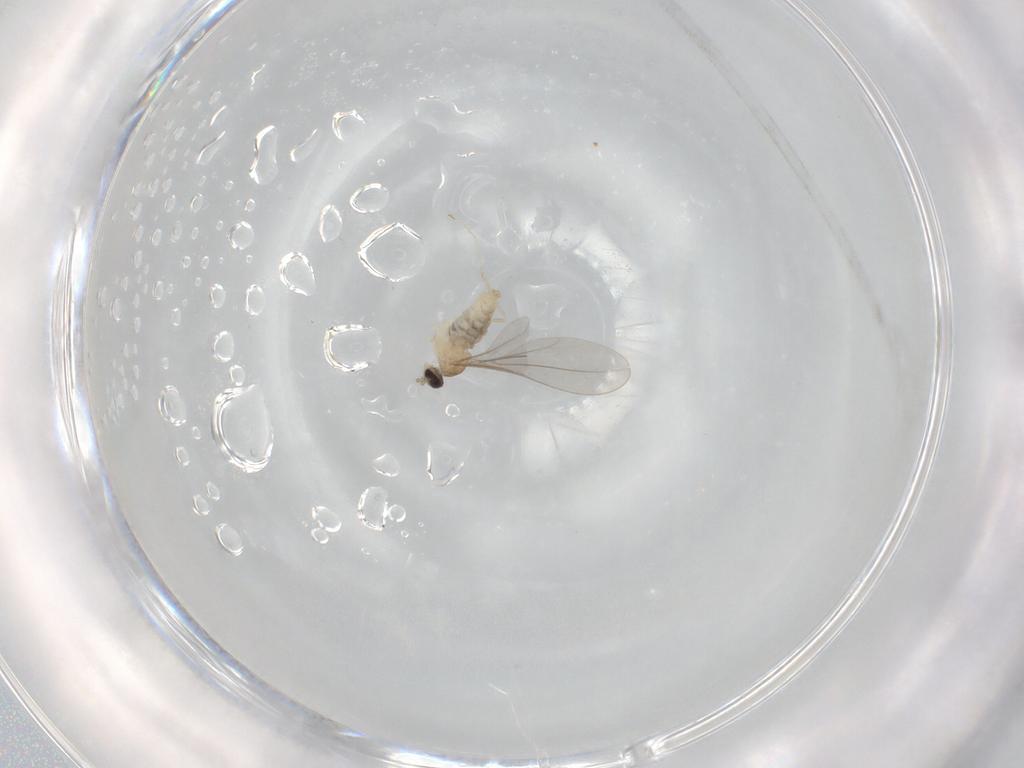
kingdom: Animalia
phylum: Arthropoda
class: Insecta
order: Diptera
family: Cecidomyiidae
